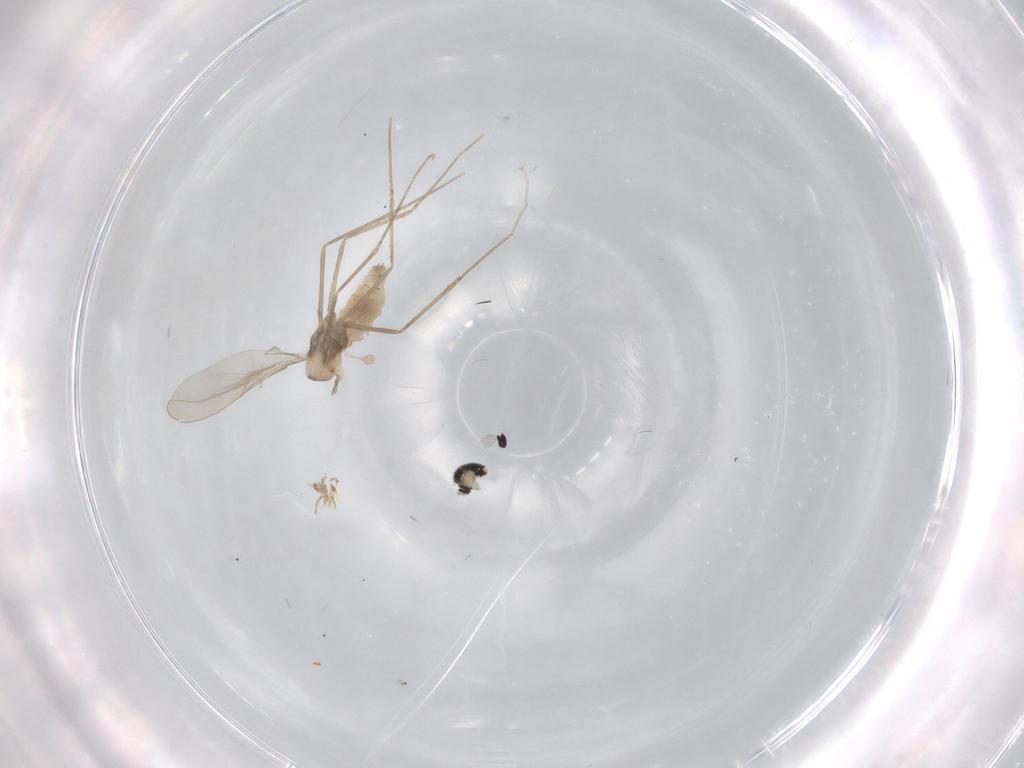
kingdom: Animalia
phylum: Arthropoda
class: Insecta
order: Diptera
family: Cecidomyiidae
